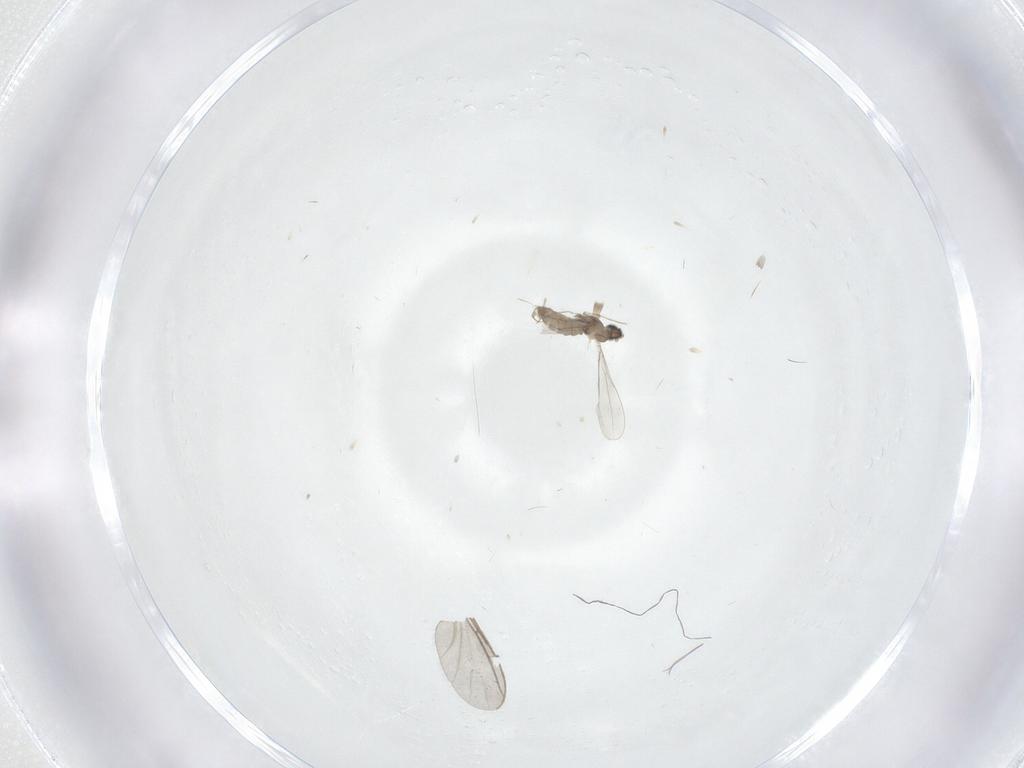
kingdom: Animalia
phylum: Arthropoda
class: Insecta
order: Diptera
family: Cecidomyiidae
